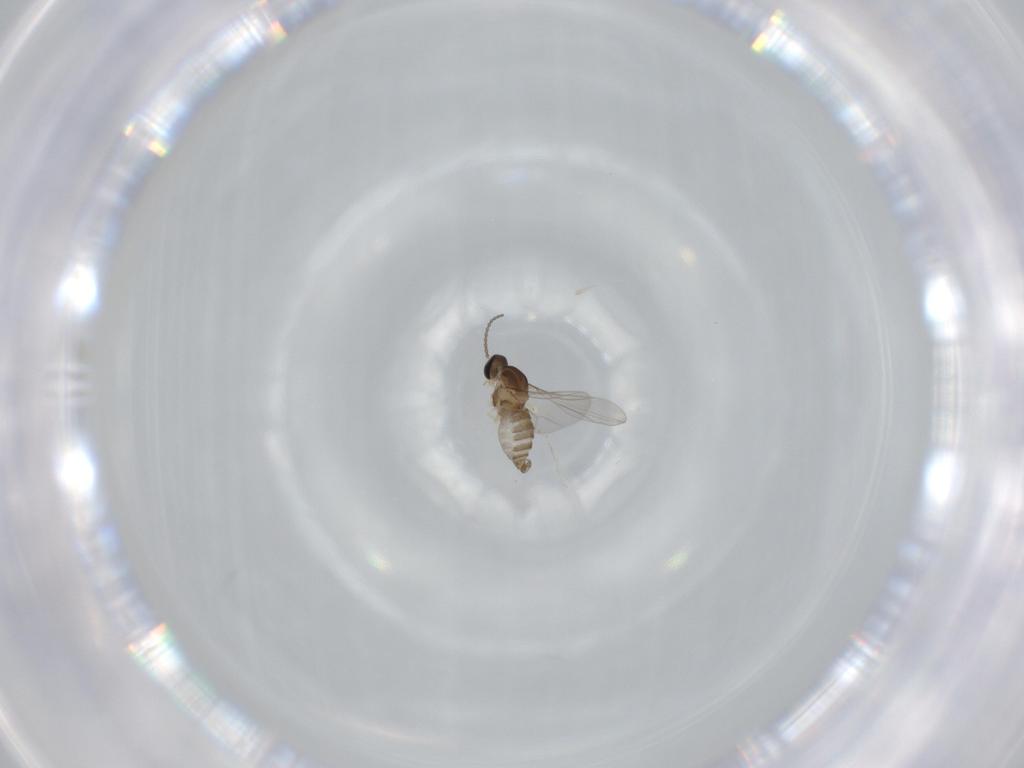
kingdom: Animalia
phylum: Arthropoda
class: Insecta
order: Diptera
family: Cecidomyiidae
